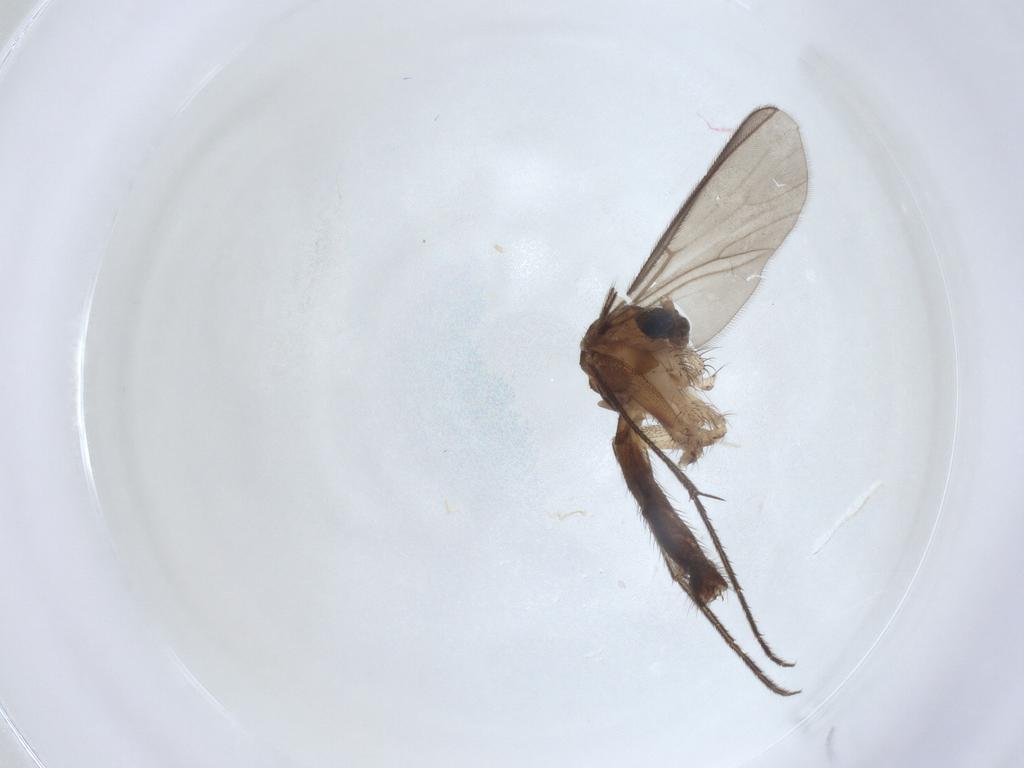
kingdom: Animalia
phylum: Arthropoda
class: Insecta
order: Diptera
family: Mycetophilidae
